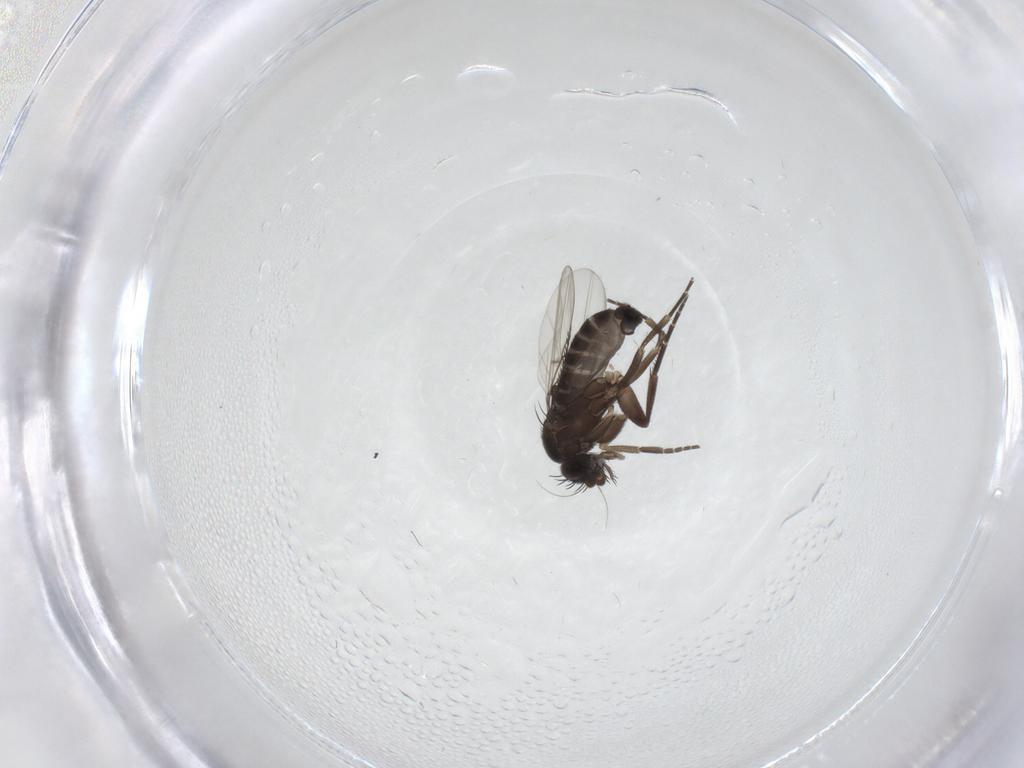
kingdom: Animalia
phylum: Arthropoda
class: Insecta
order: Diptera
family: Phoridae
